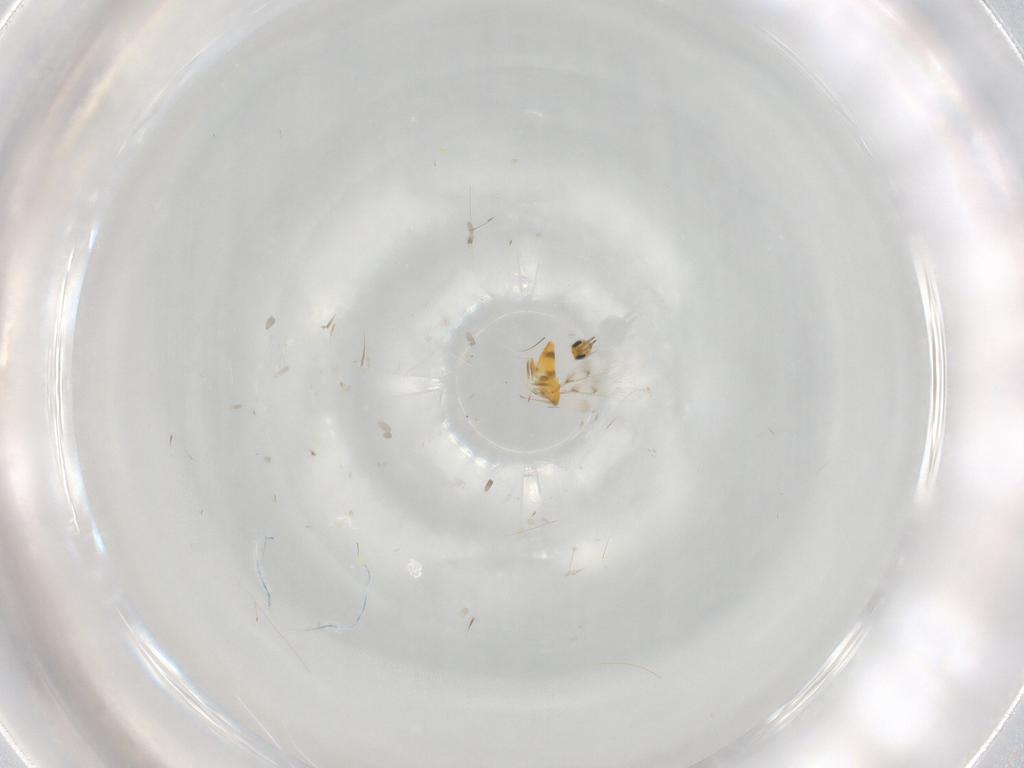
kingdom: Animalia
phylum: Arthropoda
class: Insecta
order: Hymenoptera
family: Aphelinidae
